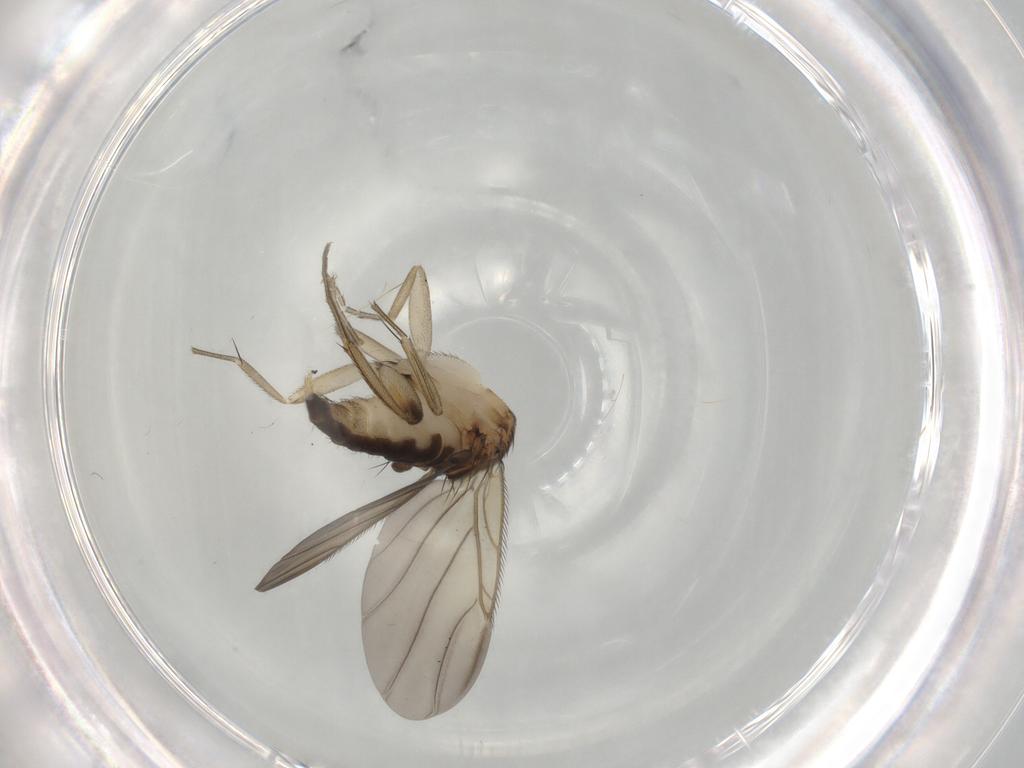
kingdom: Animalia
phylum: Arthropoda
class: Insecta
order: Diptera
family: Phoridae
